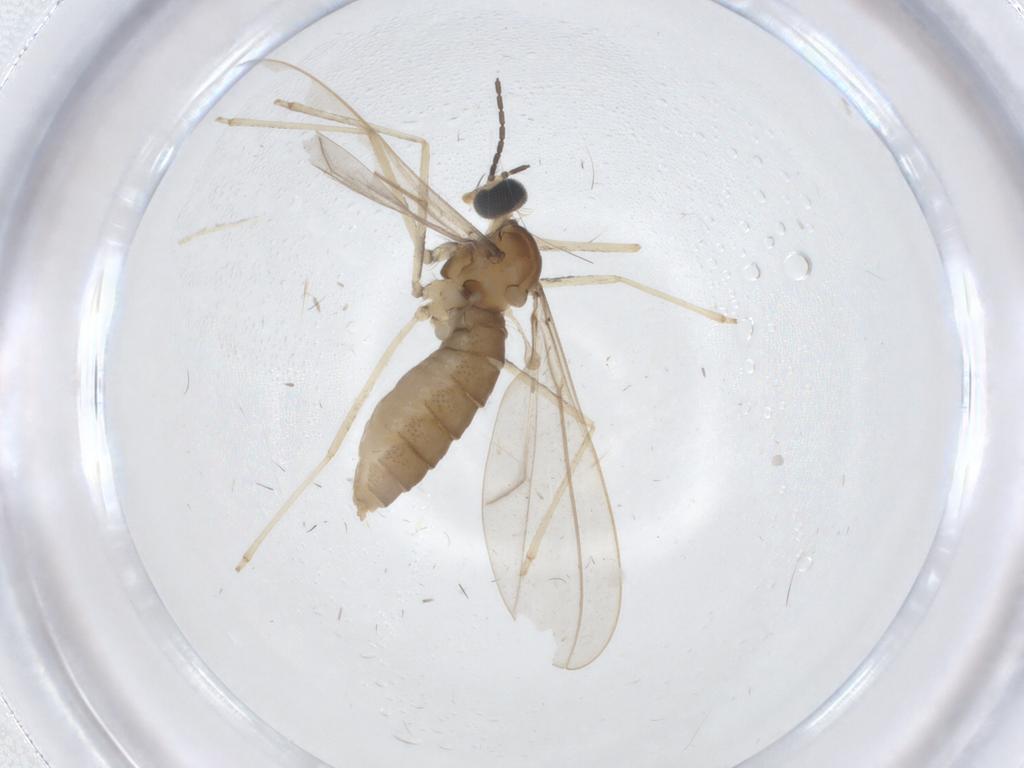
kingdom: Animalia
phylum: Arthropoda
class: Insecta
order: Diptera
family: Cecidomyiidae
